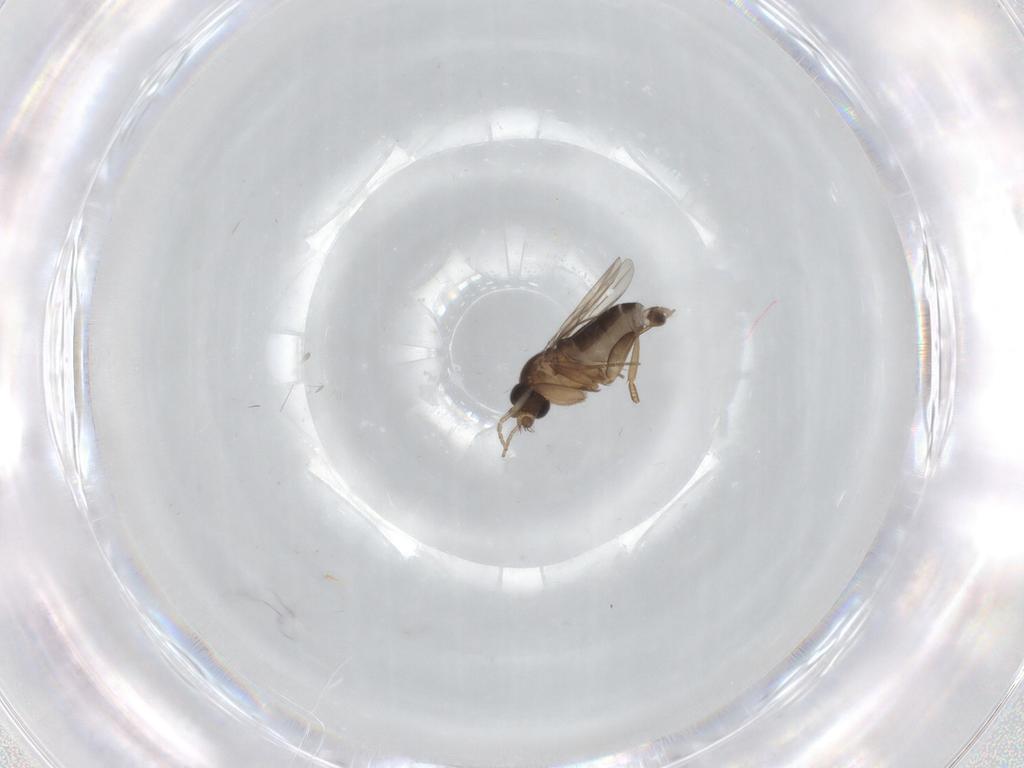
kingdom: Animalia
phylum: Arthropoda
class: Insecta
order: Diptera
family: Phoridae
